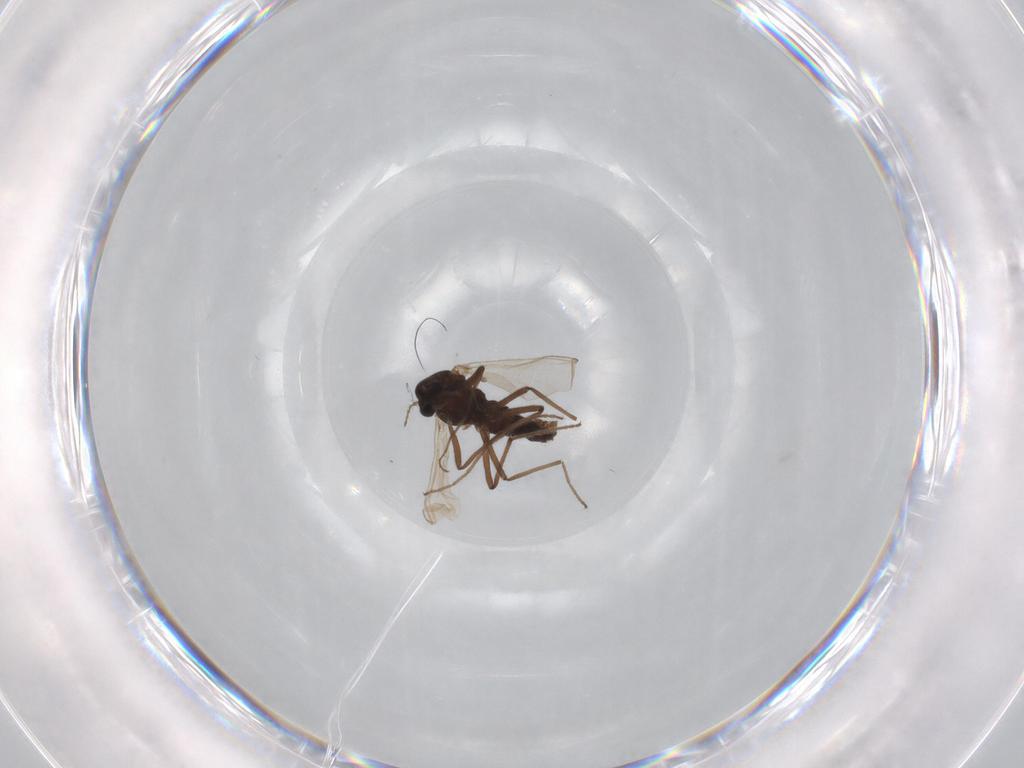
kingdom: Animalia
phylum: Arthropoda
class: Insecta
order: Diptera
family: Chironomidae
